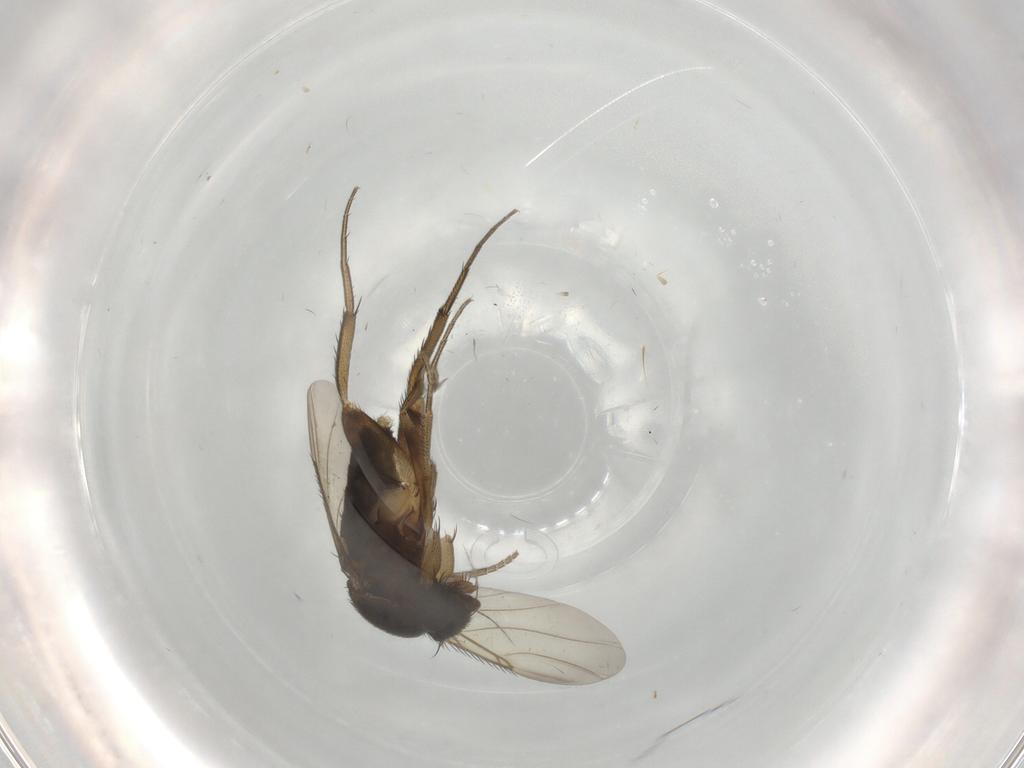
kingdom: Animalia
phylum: Arthropoda
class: Insecta
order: Diptera
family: Phoridae
